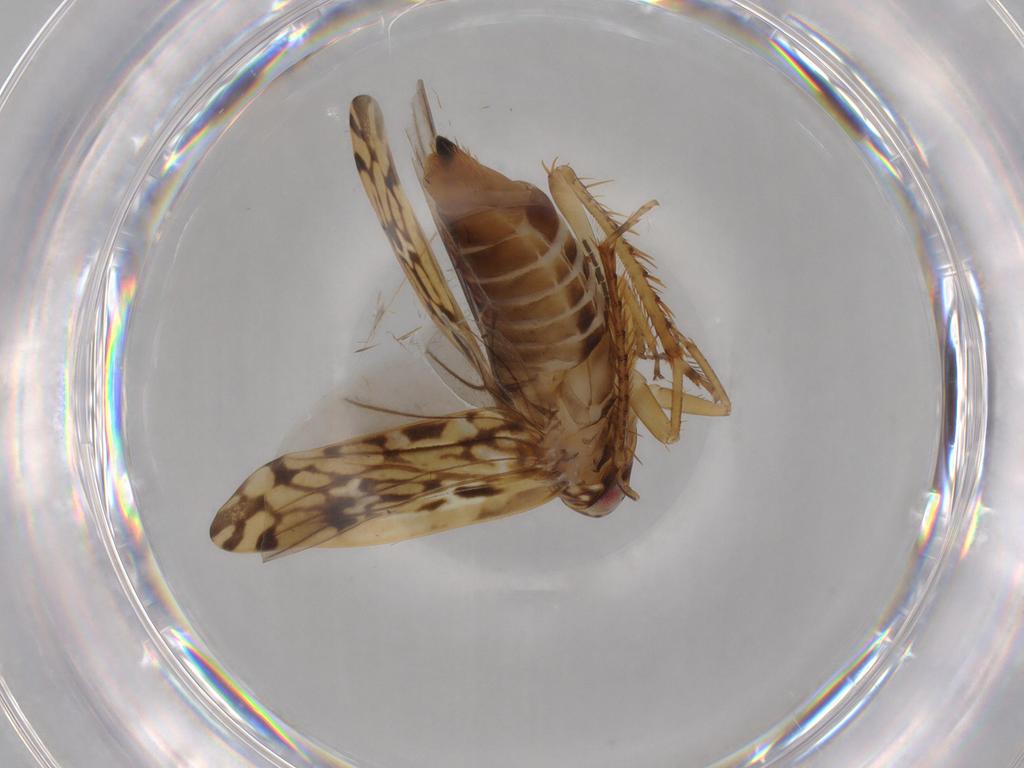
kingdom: Animalia
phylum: Arthropoda
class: Insecta
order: Hemiptera
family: Cicadellidae
